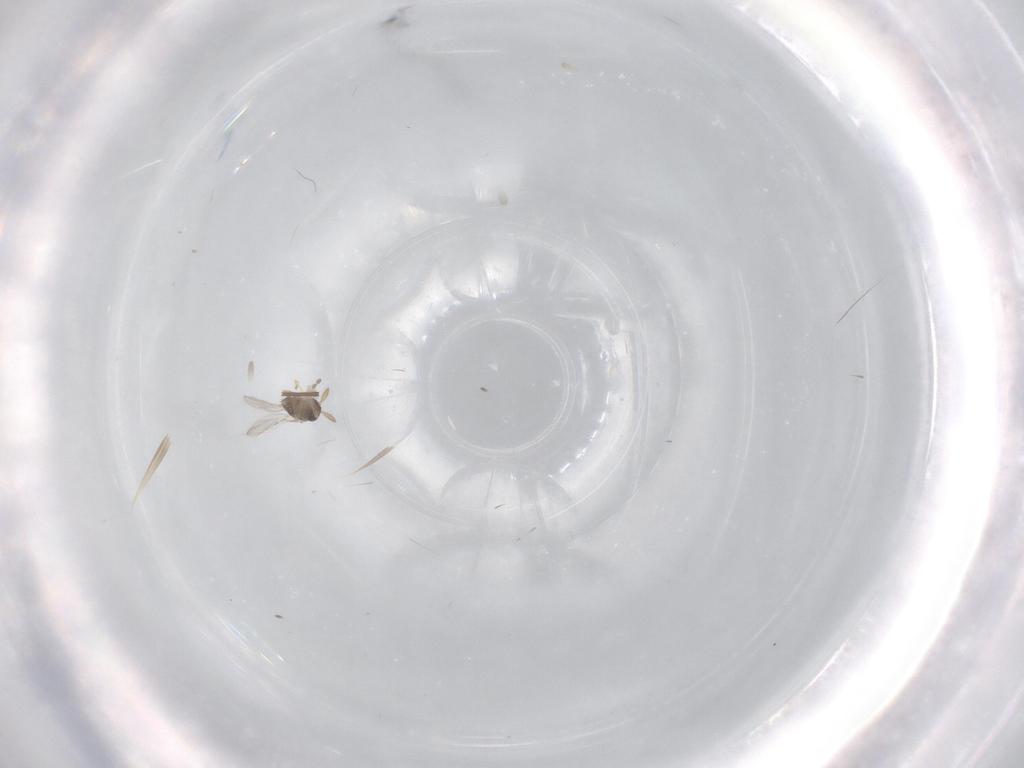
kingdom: Animalia
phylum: Arthropoda
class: Insecta
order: Hymenoptera
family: Encyrtidae
